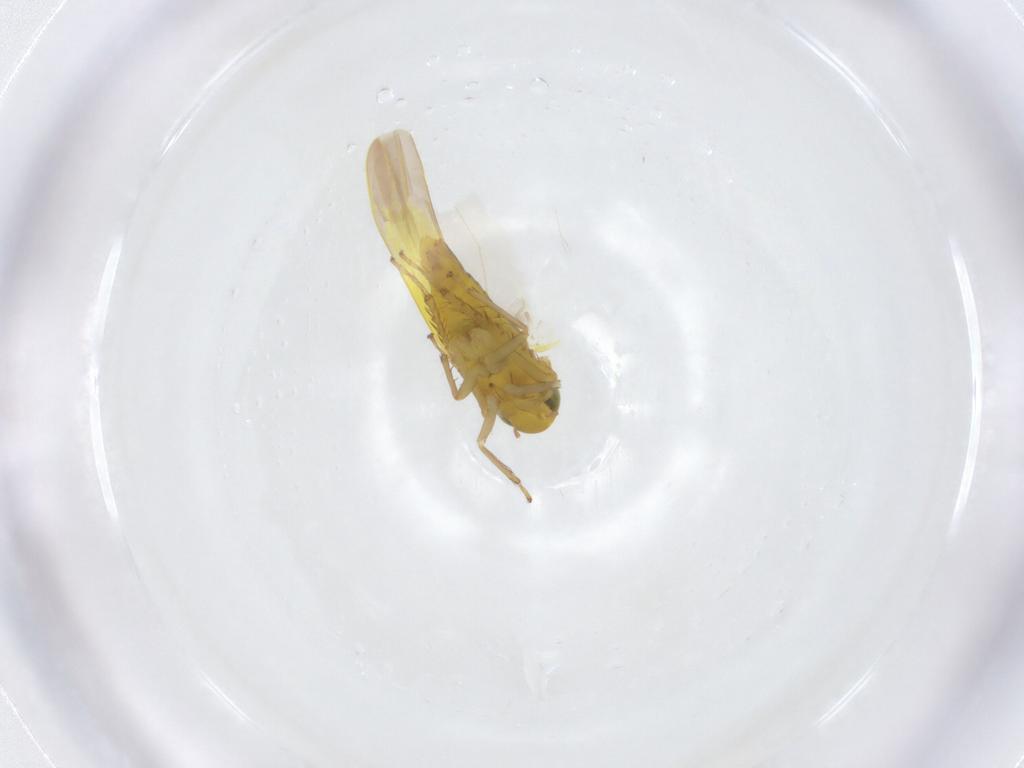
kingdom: Animalia
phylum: Arthropoda
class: Insecta
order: Hemiptera
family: Cicadellidae
